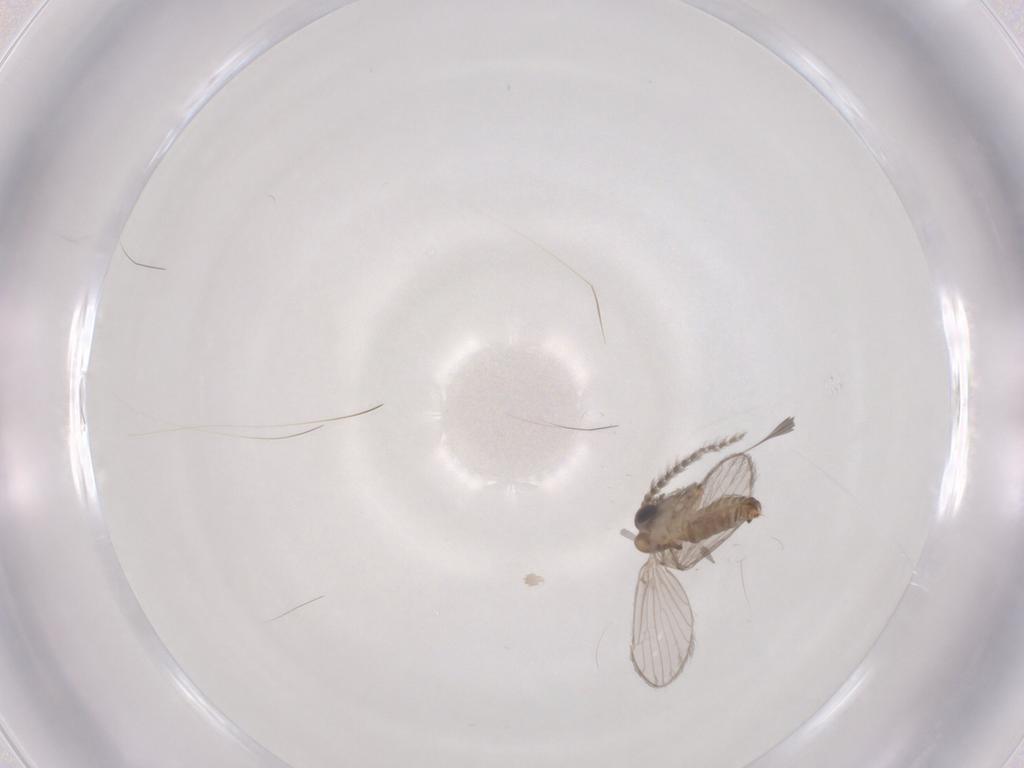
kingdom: Animalia
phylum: Arthropoda
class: Insecta
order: Diptera
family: Psychodidae
